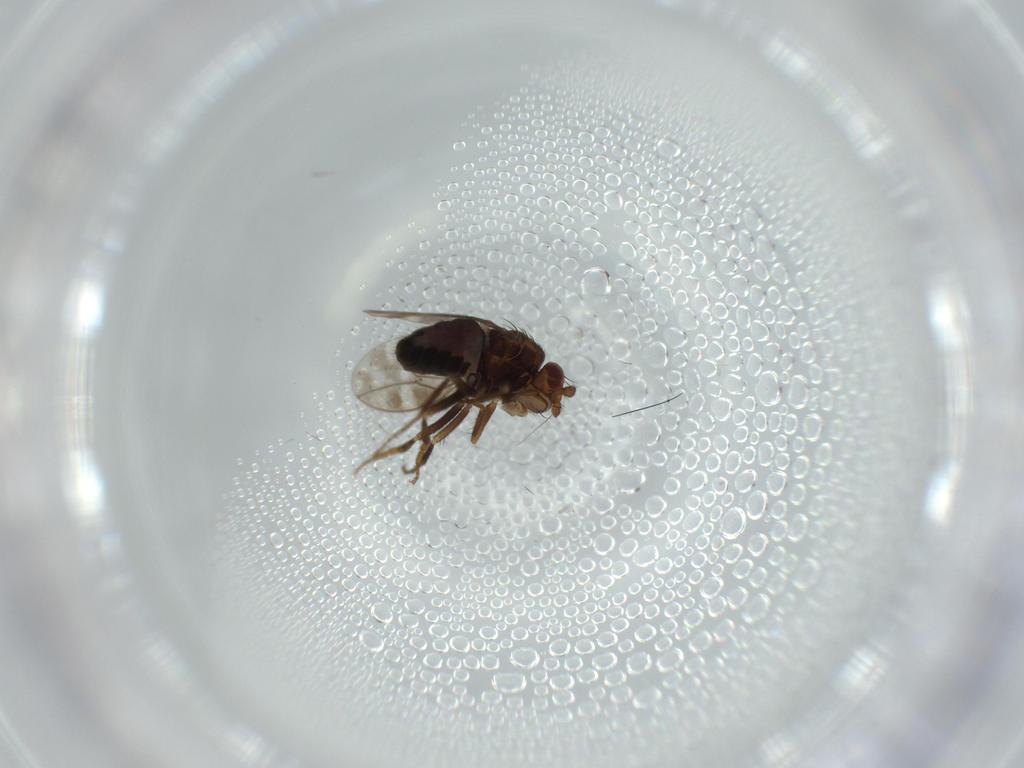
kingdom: Animalia
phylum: Arthropoda
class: Insecta
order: Diptera
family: Sphaeroceridae
